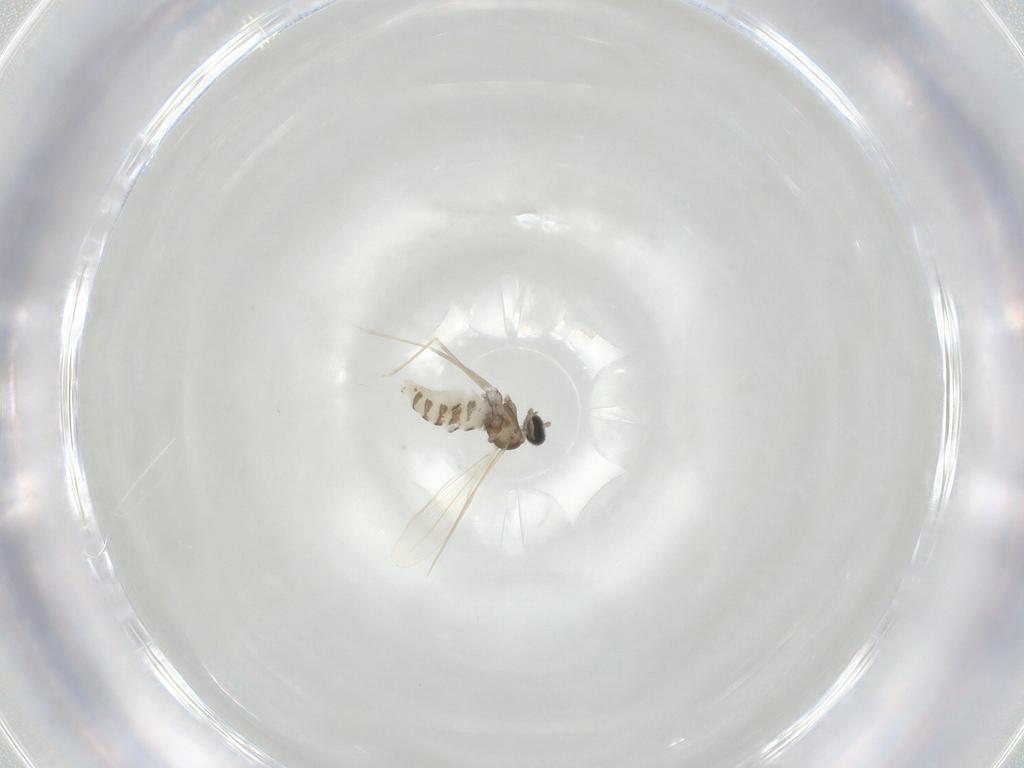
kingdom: Animalia
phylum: Arthropoda
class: Insecta
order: Diptera
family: Cecidomyiidae
